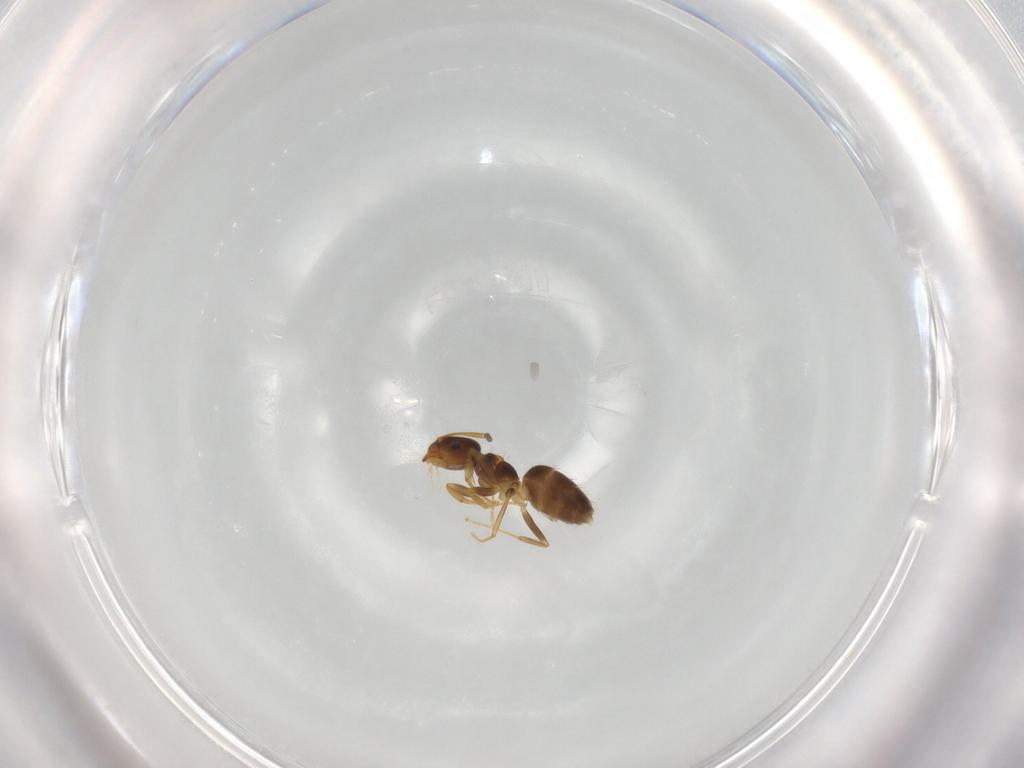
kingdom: Animalia
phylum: Arthropoda
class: Insecta
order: Hymenoptera
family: Formicidae
